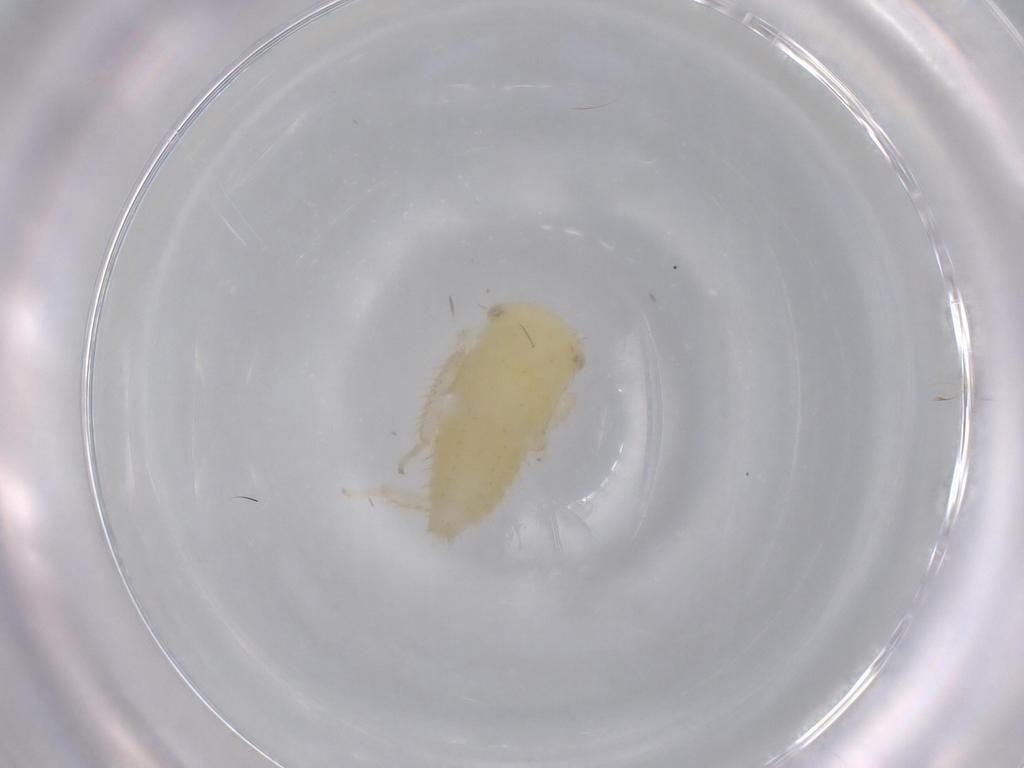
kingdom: Animalia
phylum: Arthropoda
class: Insecta
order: Hemiptera
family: Cicadellidae
